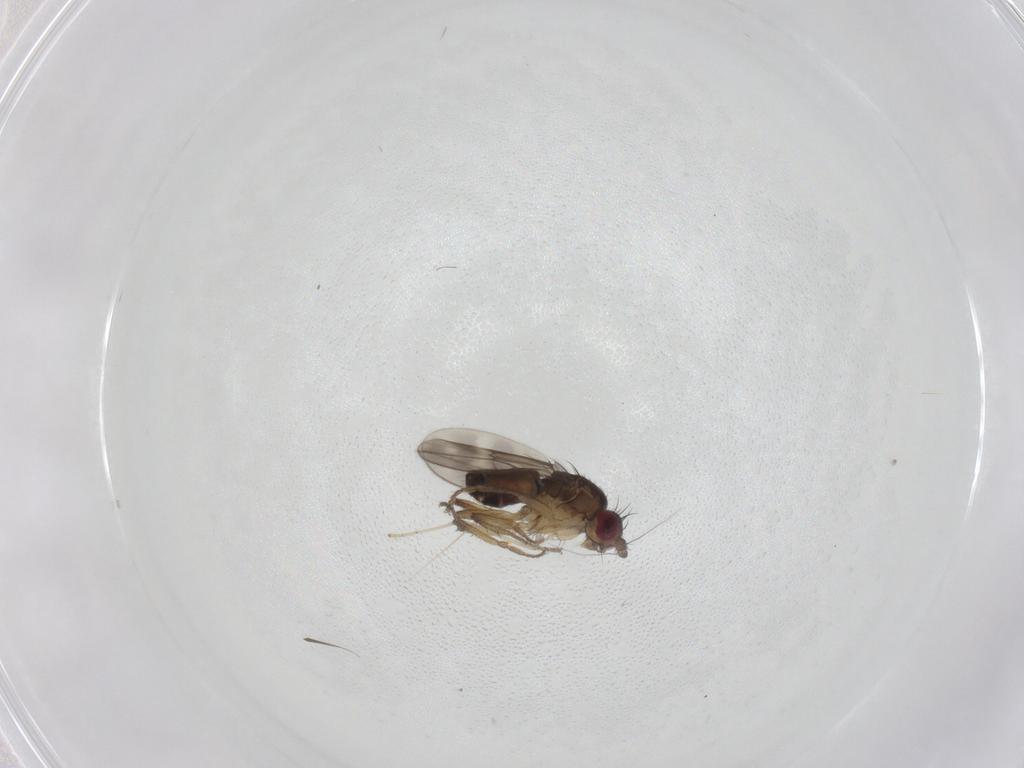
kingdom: Animalia
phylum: Arthropoda
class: Insecta
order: Diptera
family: Sphaeroceridae
